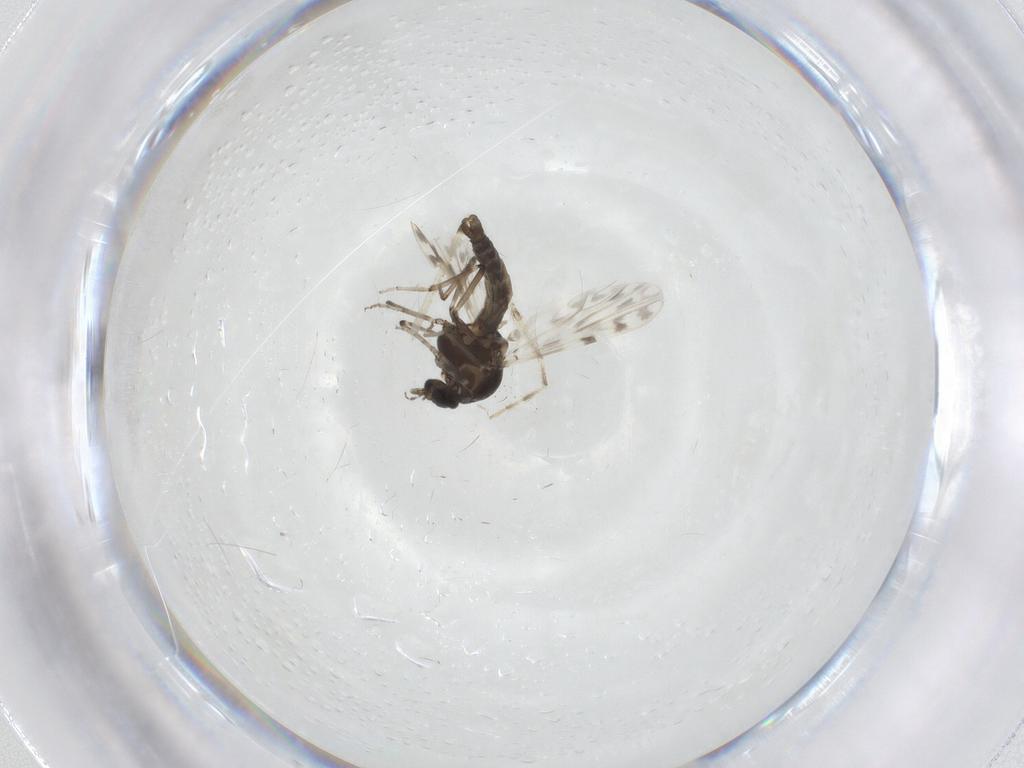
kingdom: Animalia
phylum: Arthropoda
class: Insecta
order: Diptera
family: Ceratopogonidae
